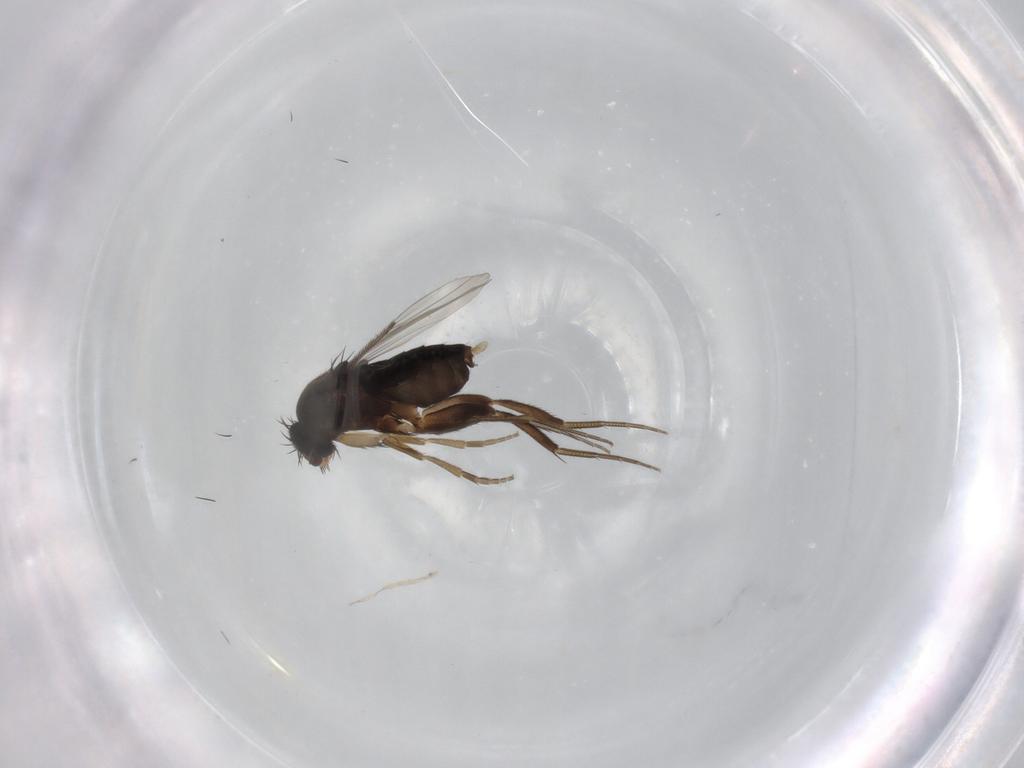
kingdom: Animalia
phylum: Arthropoda
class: Insecta
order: Diptera
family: Phoridae
